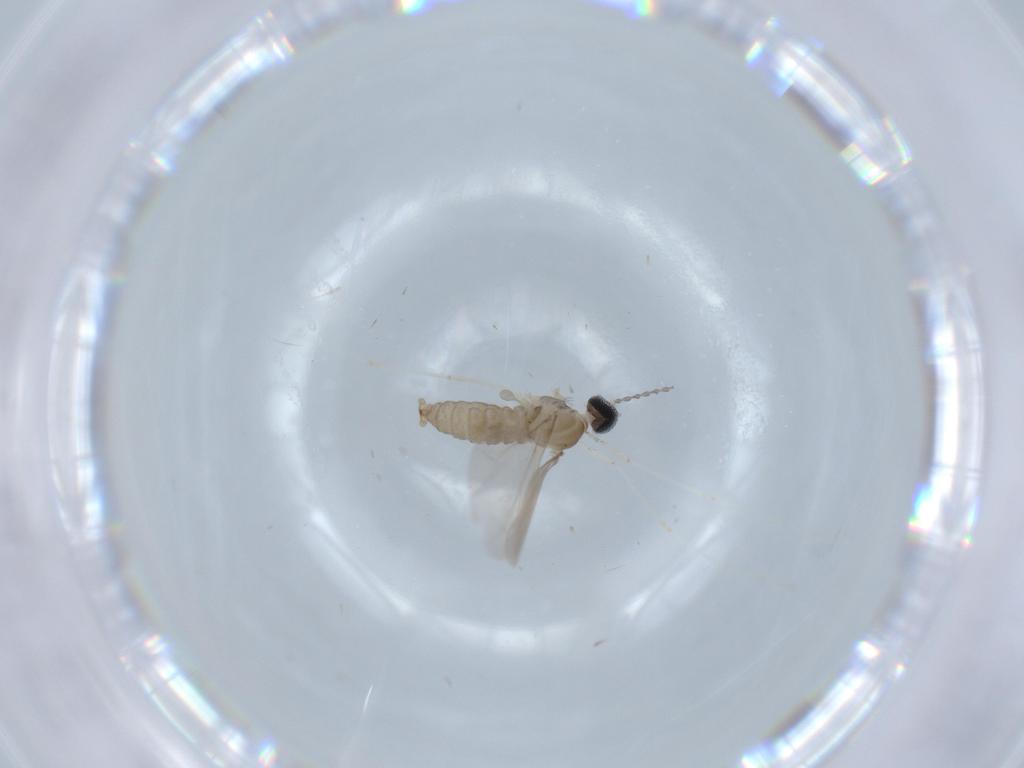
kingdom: Animalia
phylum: Arthropoda
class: Insecta
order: Diptera
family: Cecidomyiidae
